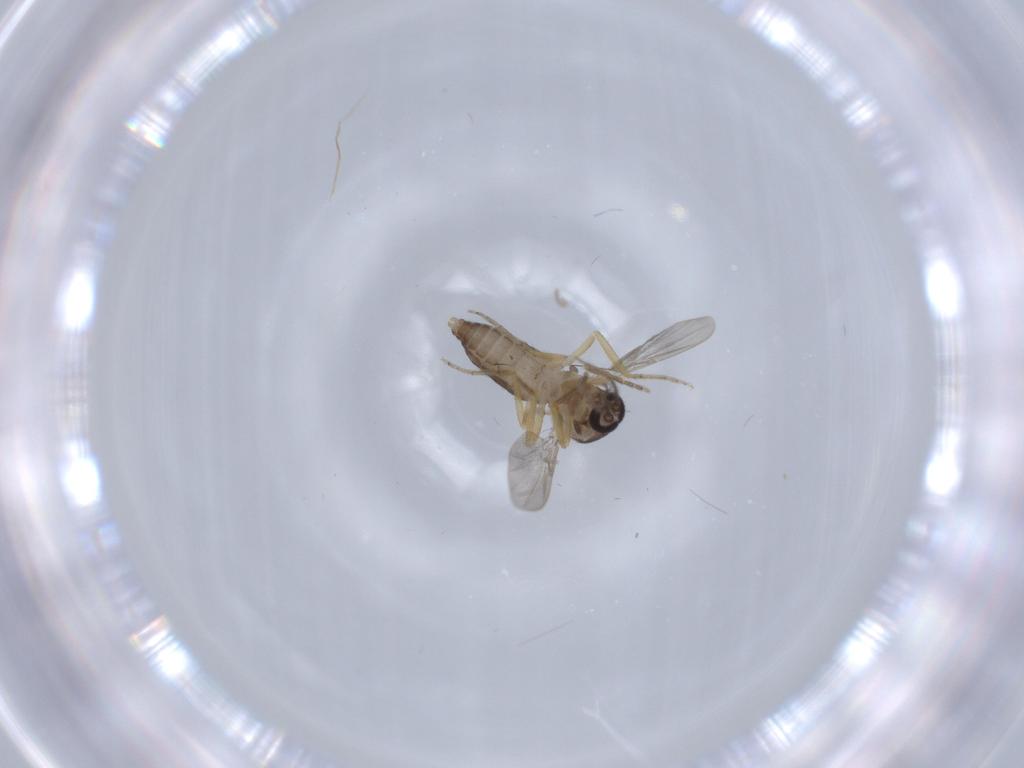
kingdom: Animalia
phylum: Arthropoda
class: Insecta
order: Diptera
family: Ceratopogonidae
